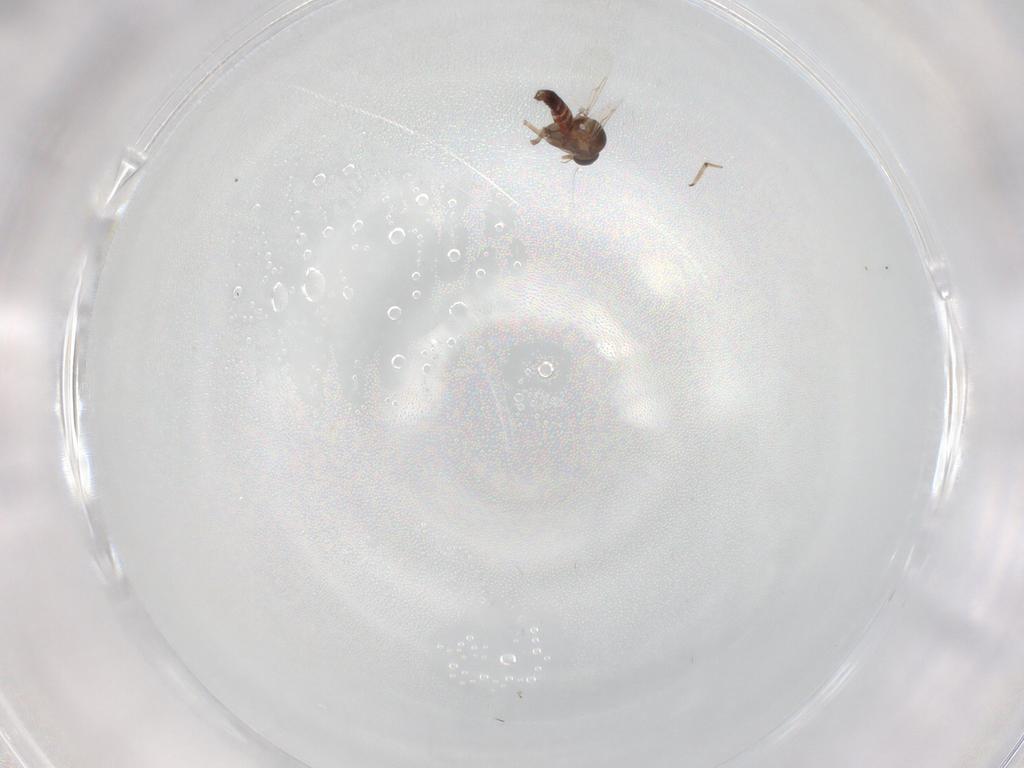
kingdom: Animalia
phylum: Arthropoda
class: Insecta
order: Diptera
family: Ceratopogonidae
